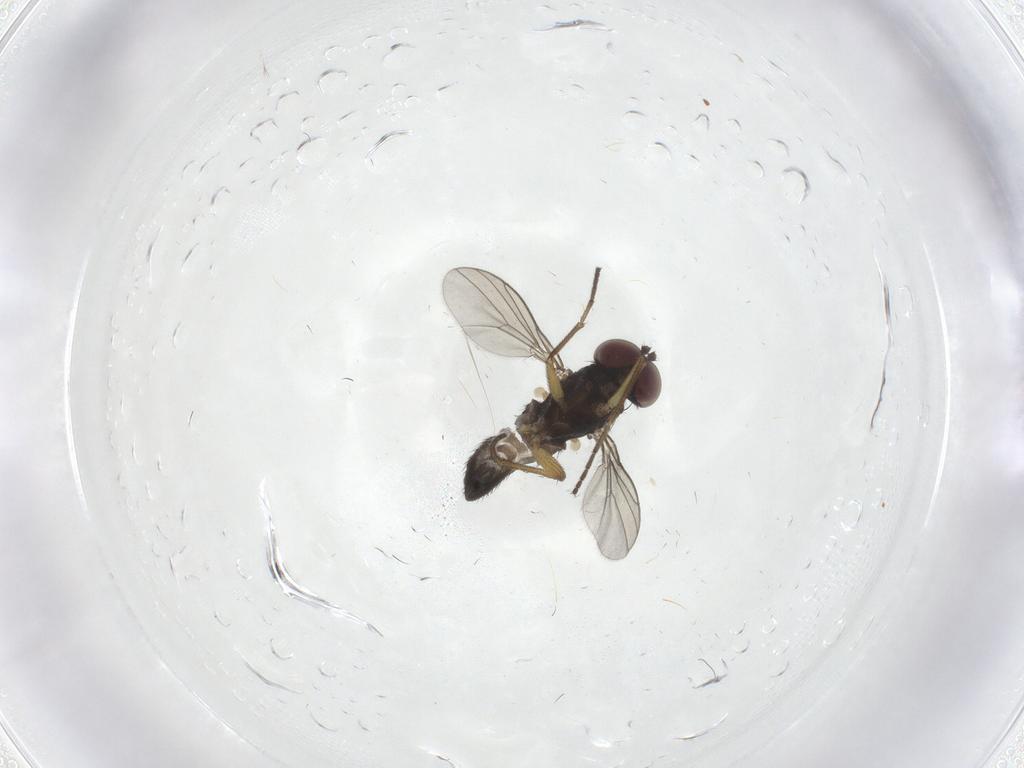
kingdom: Animalia
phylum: Arthropoda
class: Insecta
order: Diptera
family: Dolichopodidae
